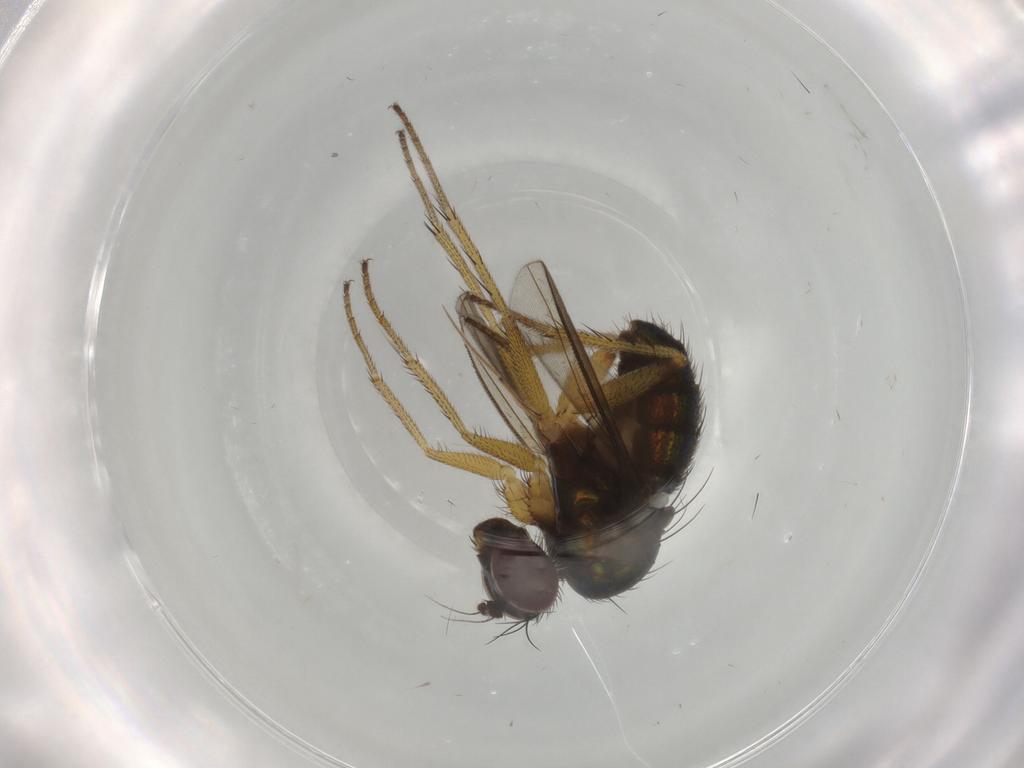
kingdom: Animalia
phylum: Arthropoda
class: Insecta
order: Diptera
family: Dolichopodidae
